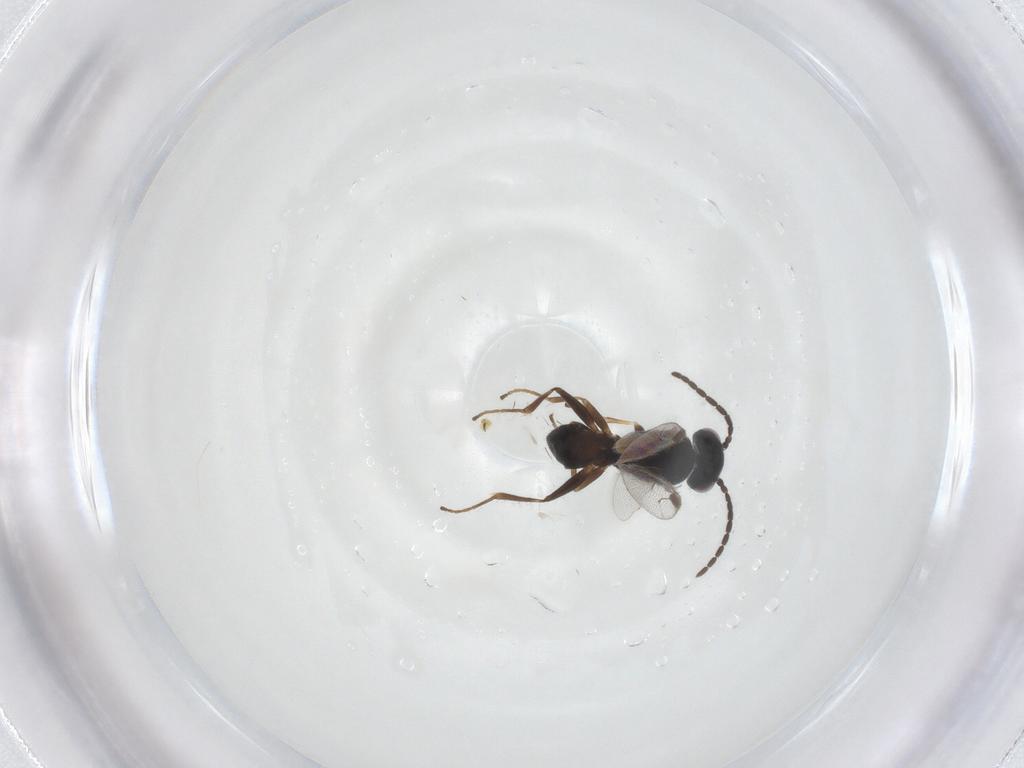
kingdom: Animalia
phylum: Arthropoda
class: Insecta
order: Hymenoptera
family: Dryinidae
